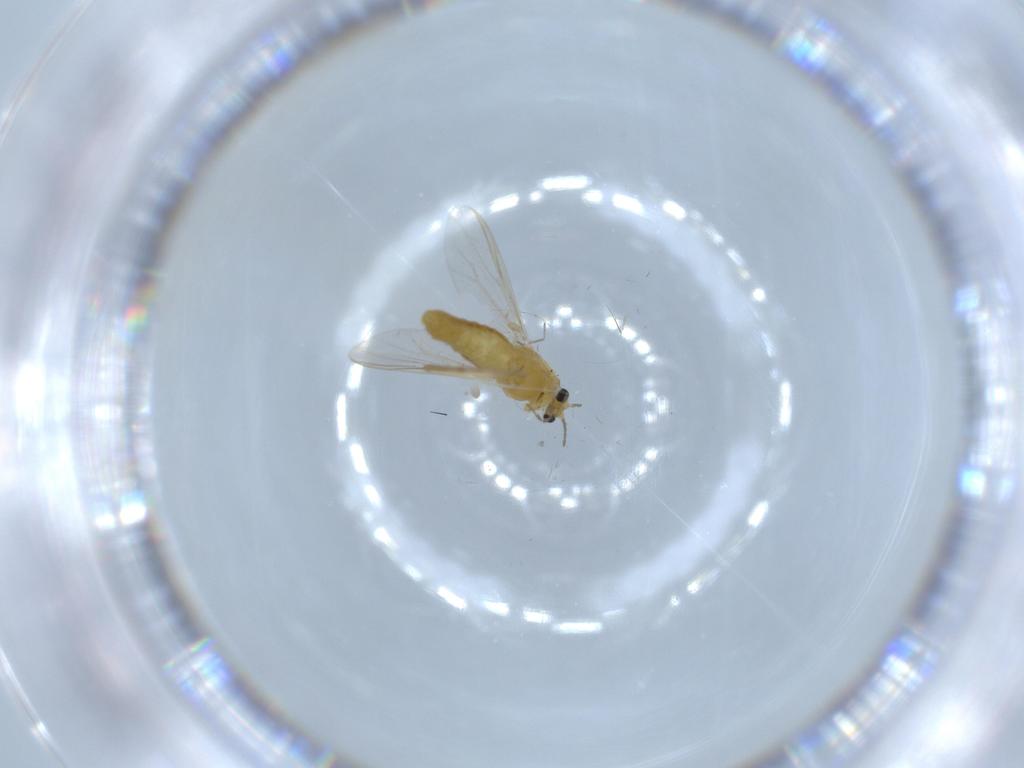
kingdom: Animalia
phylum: Arthropoda
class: Insecta
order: Diptera
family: Chironomidae
